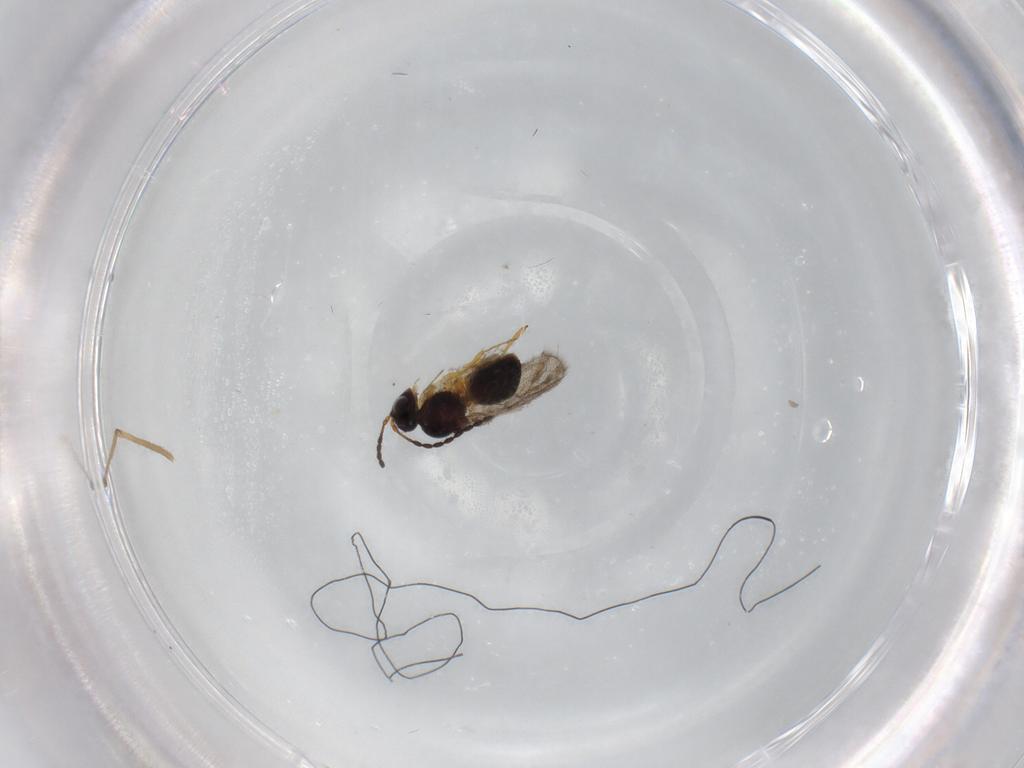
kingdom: Animalia
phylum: Arthropoda
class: Insecta
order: Hymenoptera
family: Figitidae
